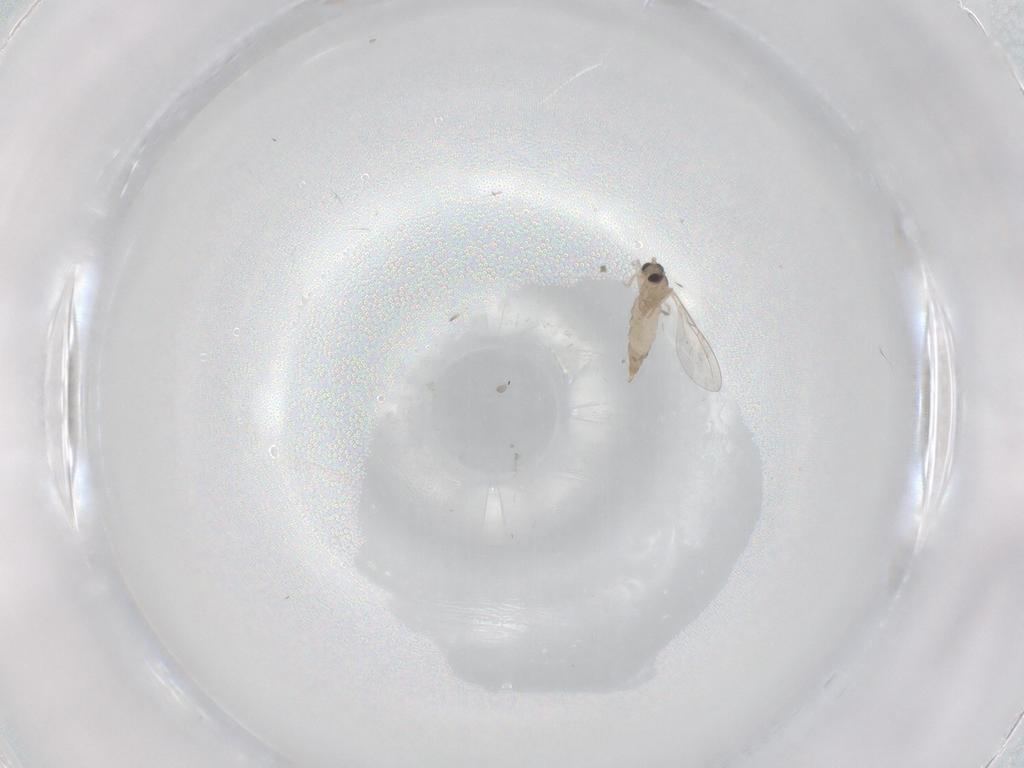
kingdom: Animalia
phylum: Arthropoda
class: Insecta
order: Diptera
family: Cecidomyiidae
